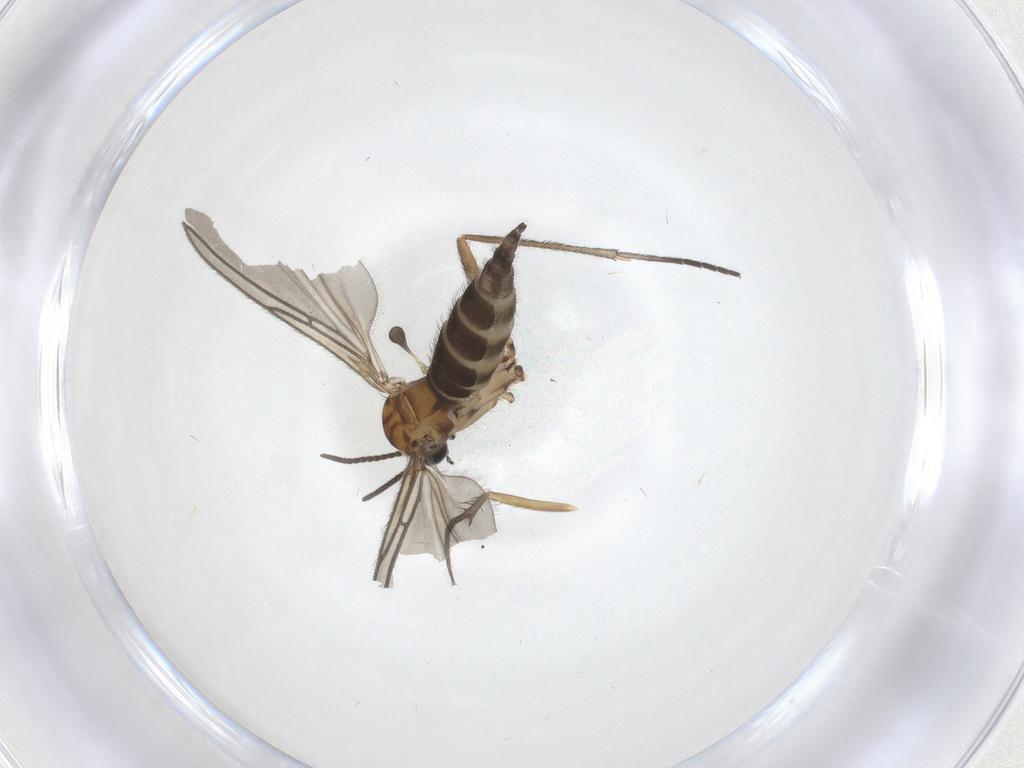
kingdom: Animalia
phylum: Arthropoda
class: Insecta
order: Diptera
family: Sciaridae
